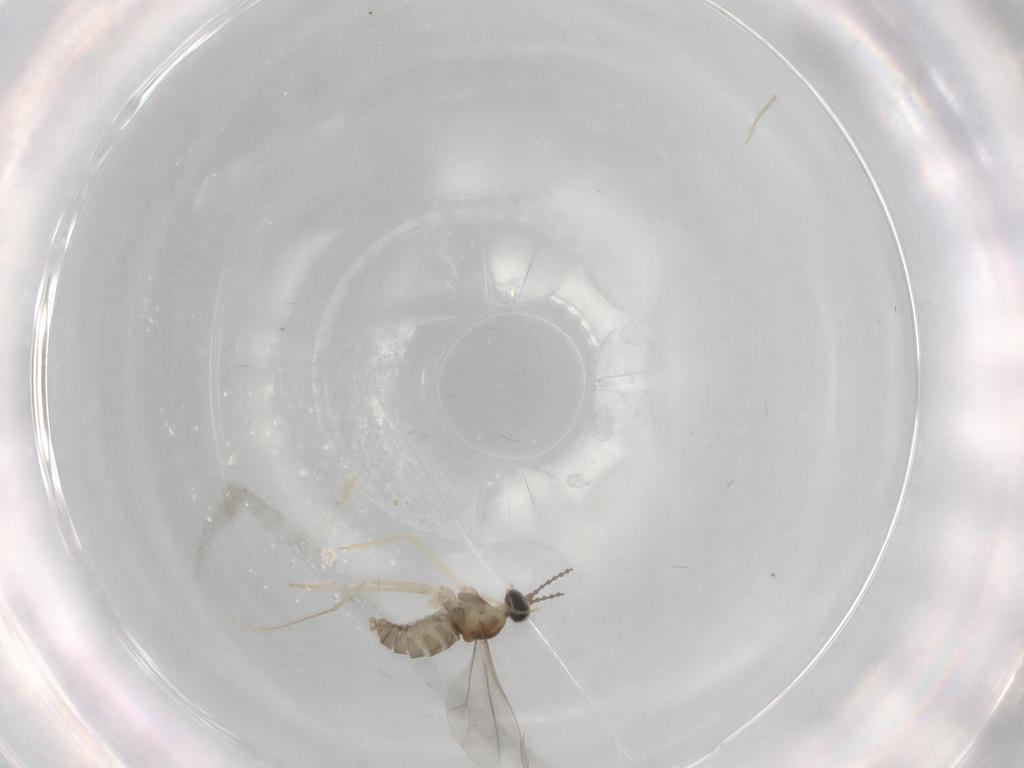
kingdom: Animalia
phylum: Arthropoda
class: Insecta
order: Diptera
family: Cecidomyiidae
